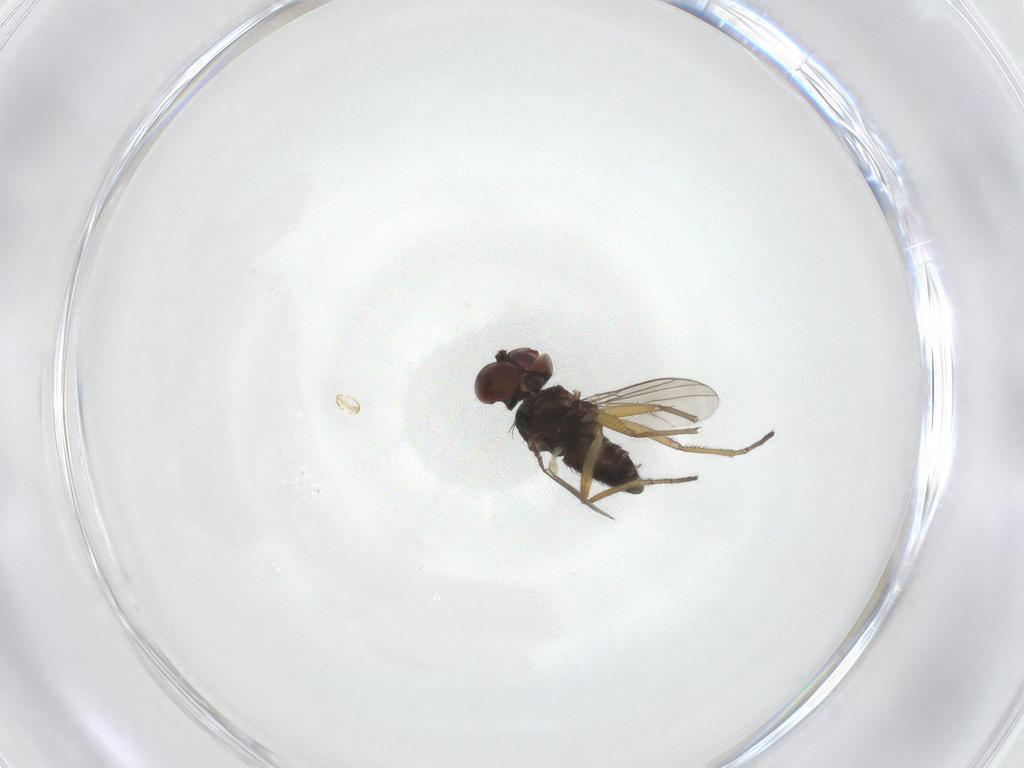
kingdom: Animalia
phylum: Arthropoda
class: Insecta
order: Diptera
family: Dolichopodidae
